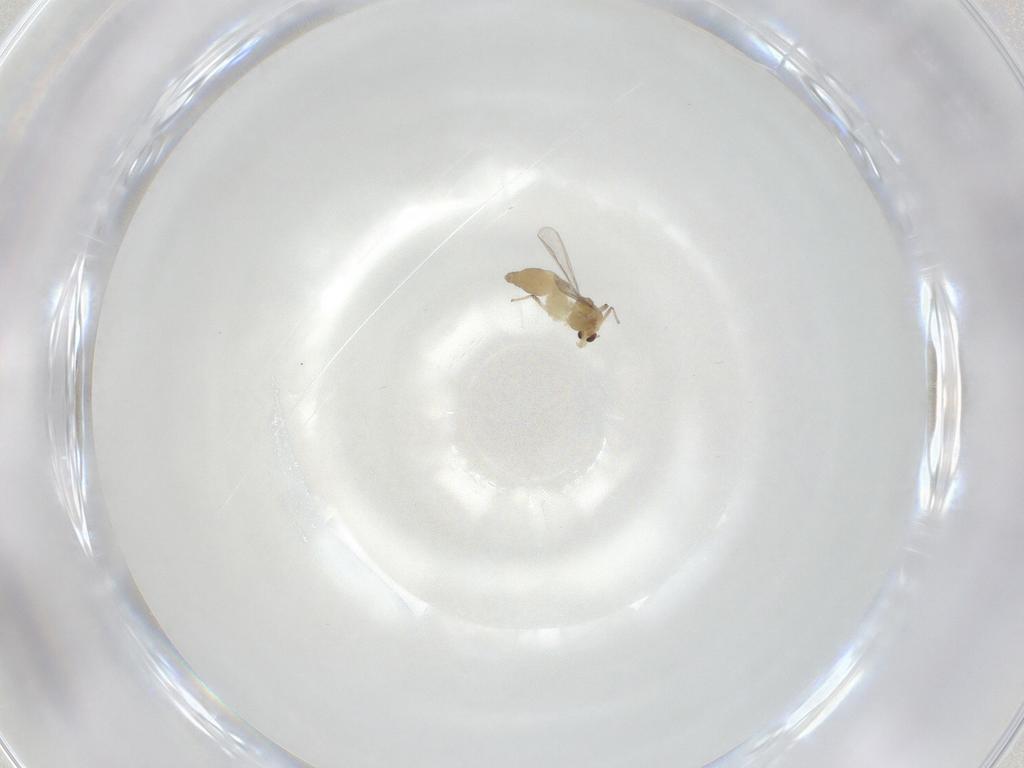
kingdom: Animalia
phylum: Arthropoda
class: Insecta
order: Diptera
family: Chironomidae
